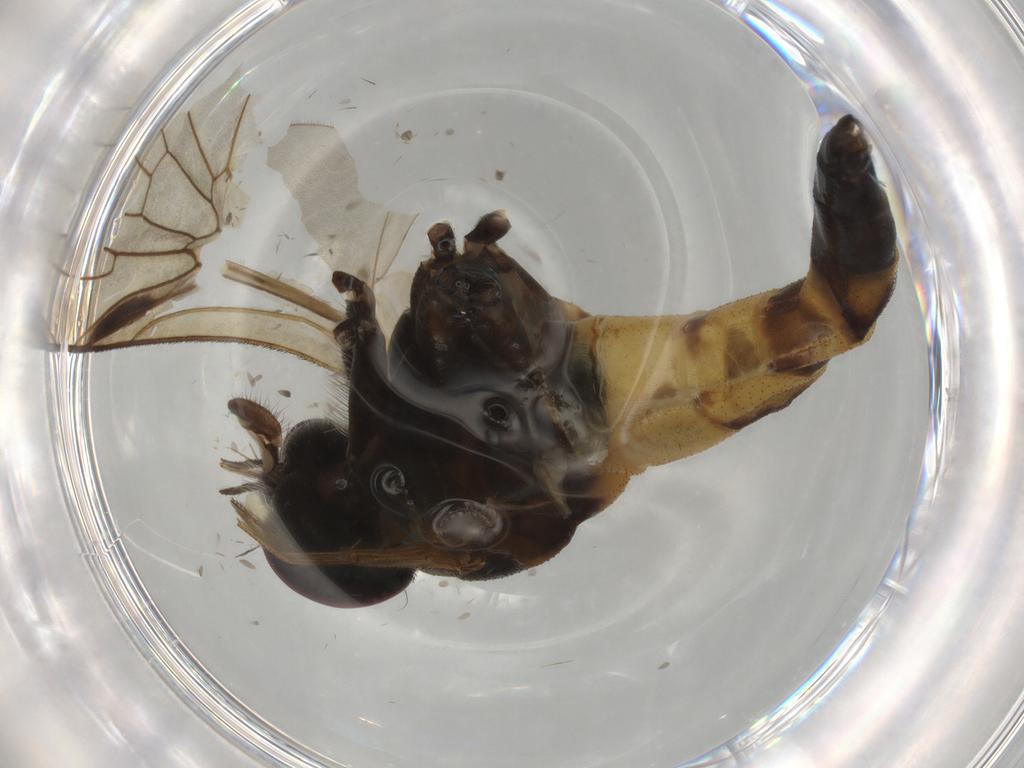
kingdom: Animalia
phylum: Arthropoda
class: Insecta
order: Diptera
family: Rhagionidae
